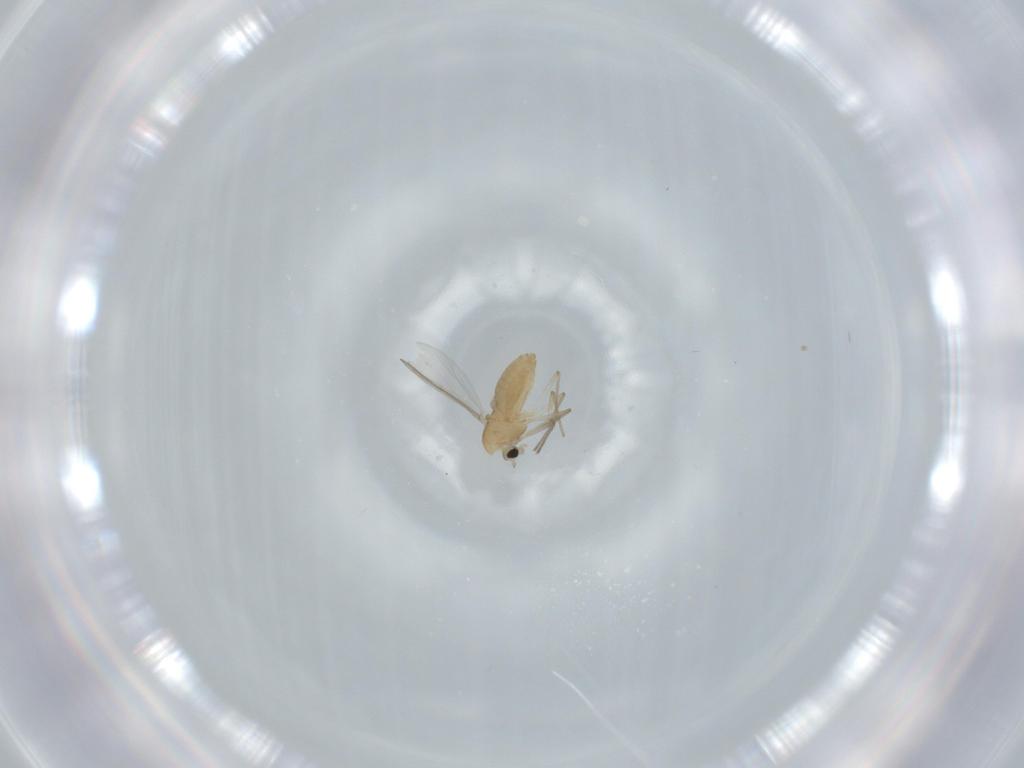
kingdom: Animalia
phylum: Arthropoda
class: Insecta
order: Diptera
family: Chironomidae
